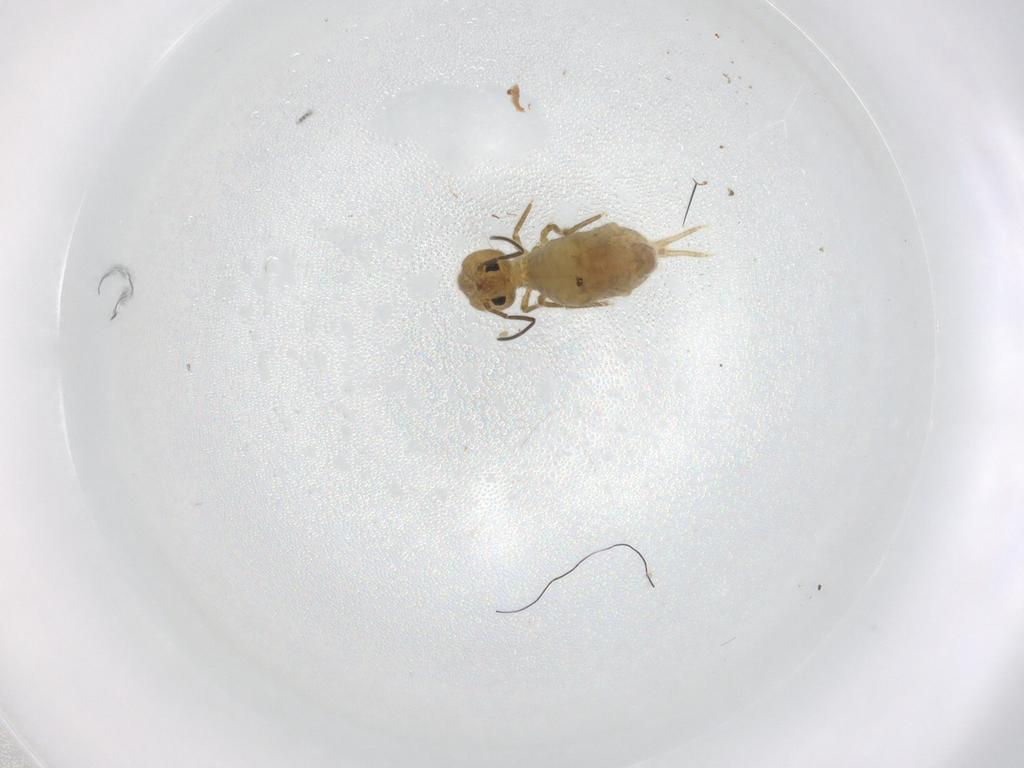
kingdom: Animalia
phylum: Arthropoda
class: Collembola
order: Symphypleona
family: Sminthuridae
